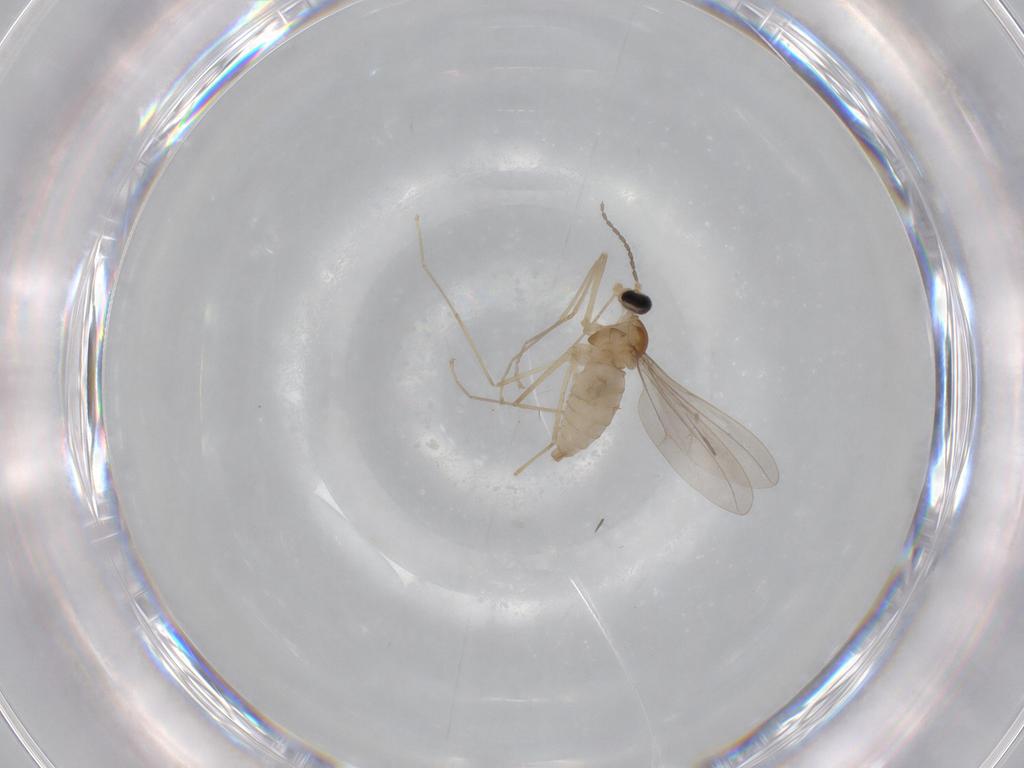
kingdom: Animalia
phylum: Arthropoda
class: Insecta
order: Diptera
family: Cecidomyiidae
